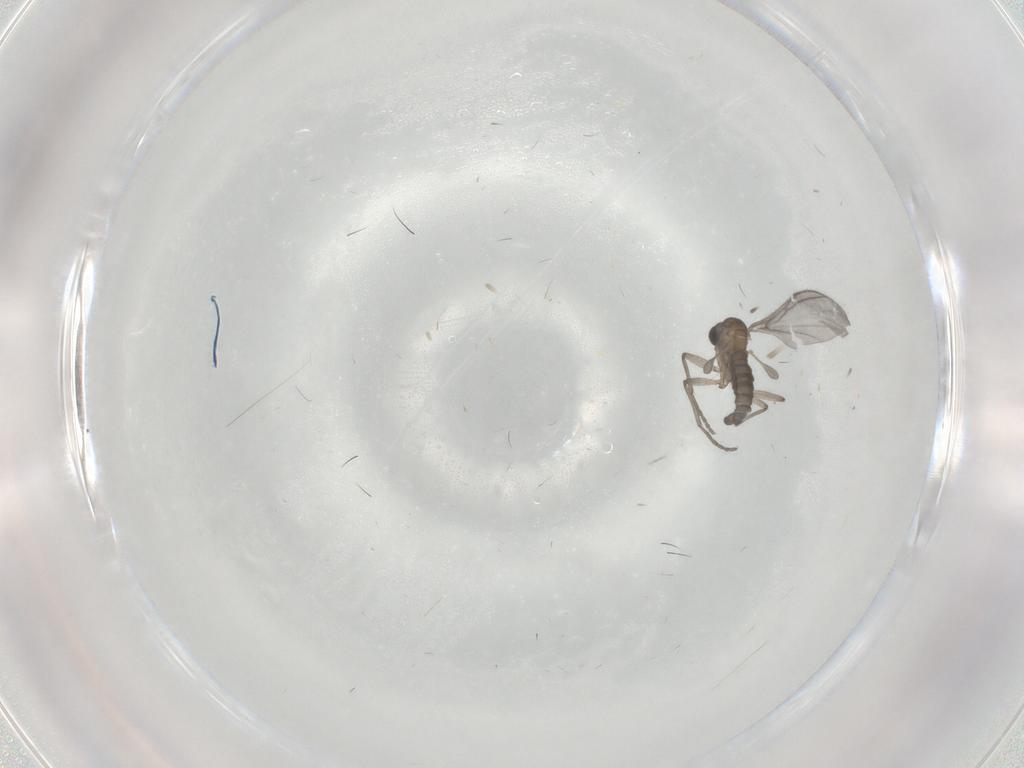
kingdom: Animalia
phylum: Arthropoda
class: Insecta
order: Diptera
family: Sciaridae
